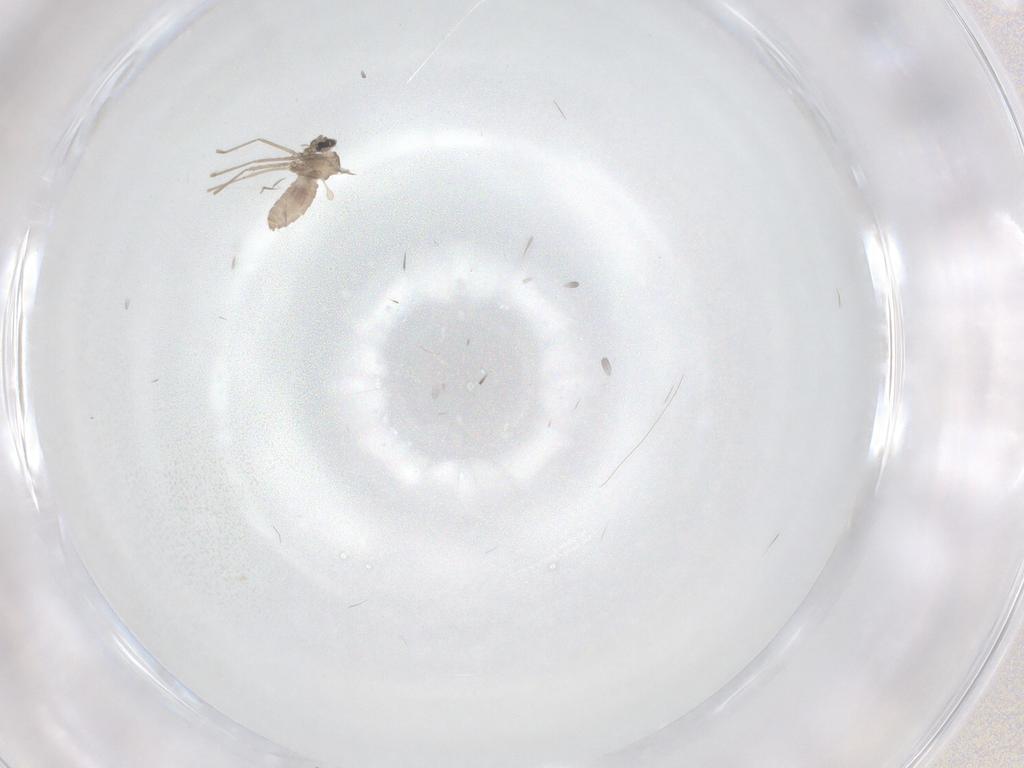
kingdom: Animalia
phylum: Arthropoda
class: Insecta
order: Diptera
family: Cecidomyiidae
